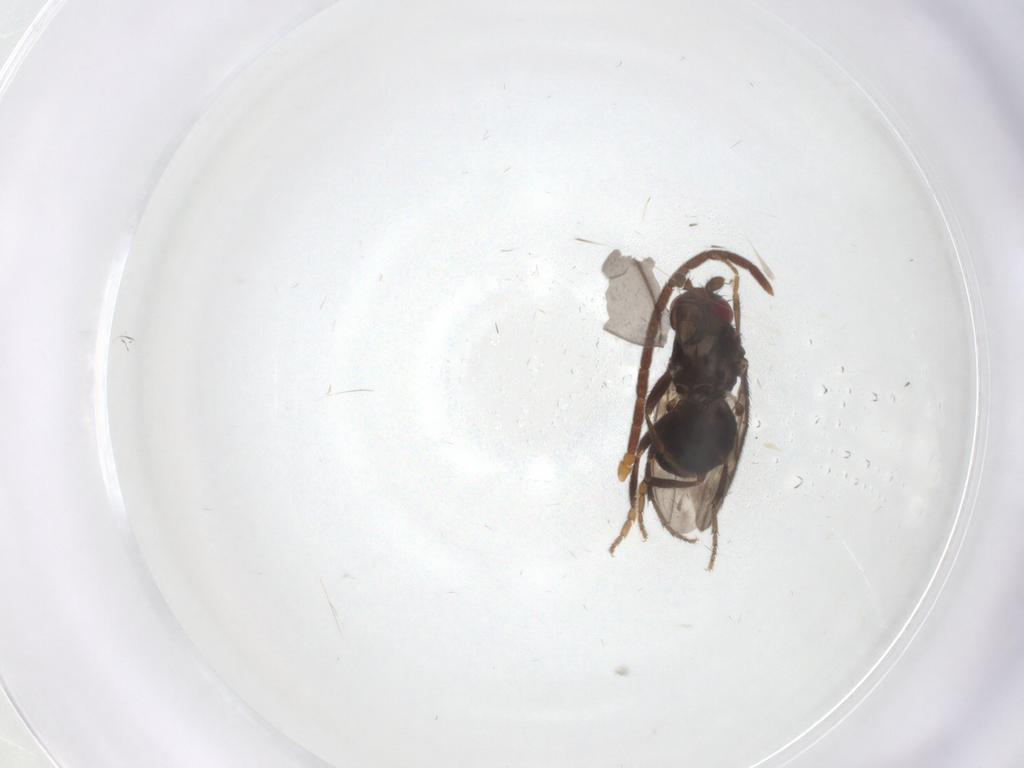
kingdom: Animalia
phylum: Arthropoda
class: Insecta
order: Diptera
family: Sphaeroceridae
